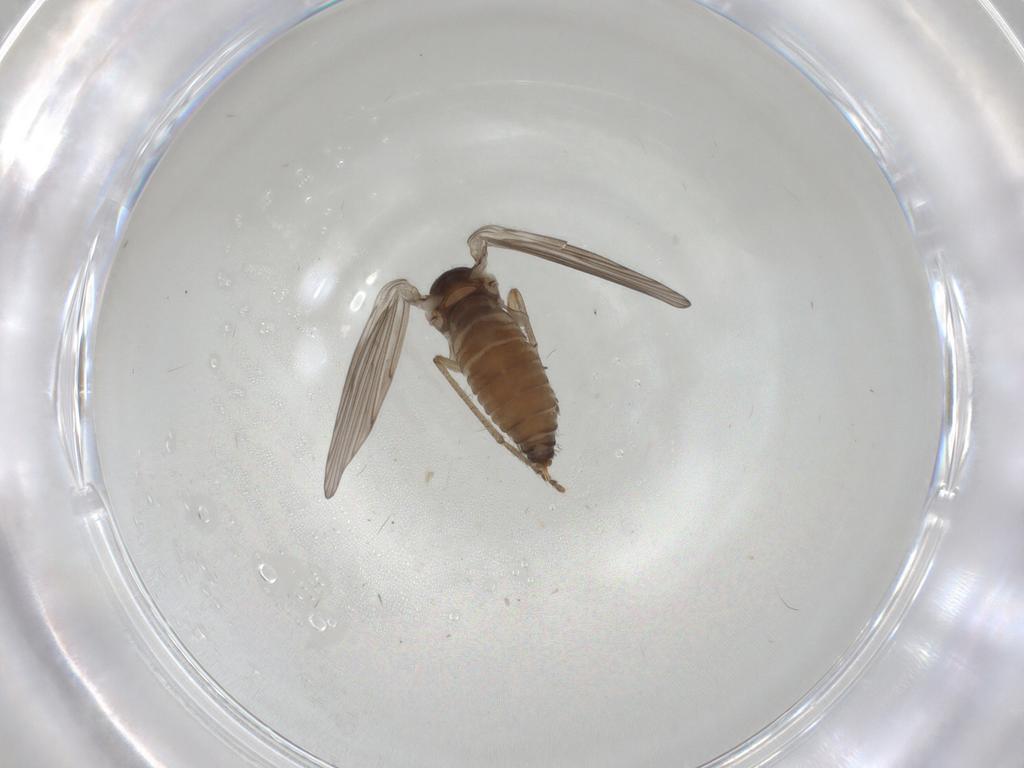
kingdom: Animalia
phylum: Arthropoda
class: Insecta
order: Diptera
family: Psychodidae
